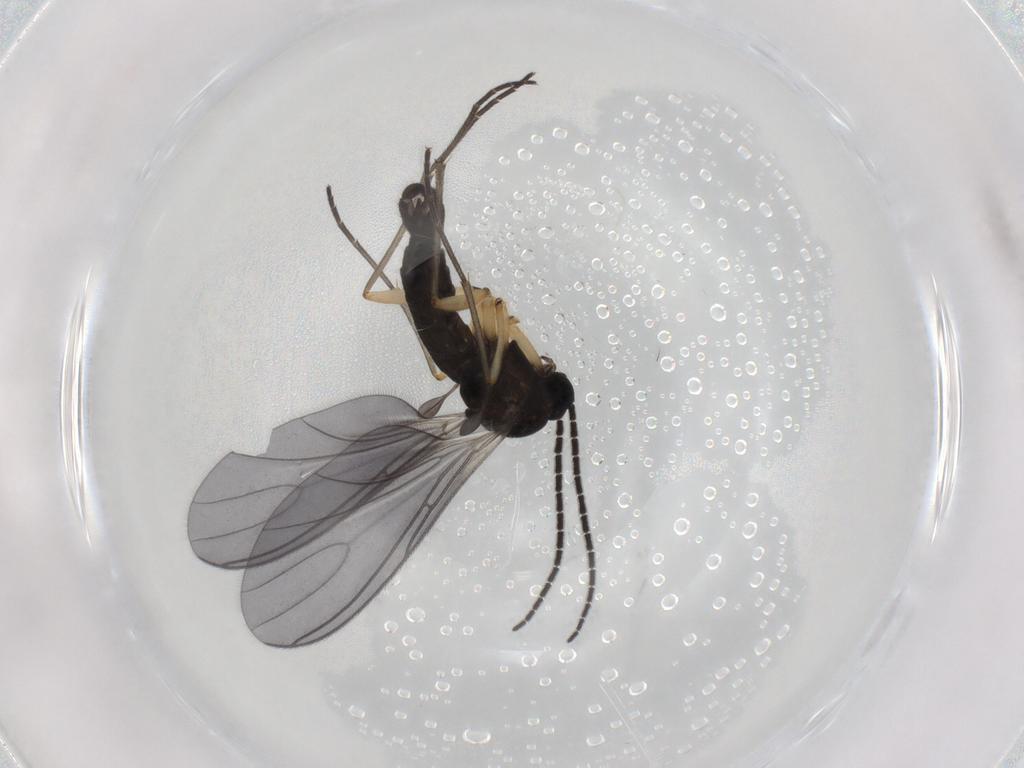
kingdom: Animalia
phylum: Arthropoda
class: Insecta
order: Diptera
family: Sciaridae
